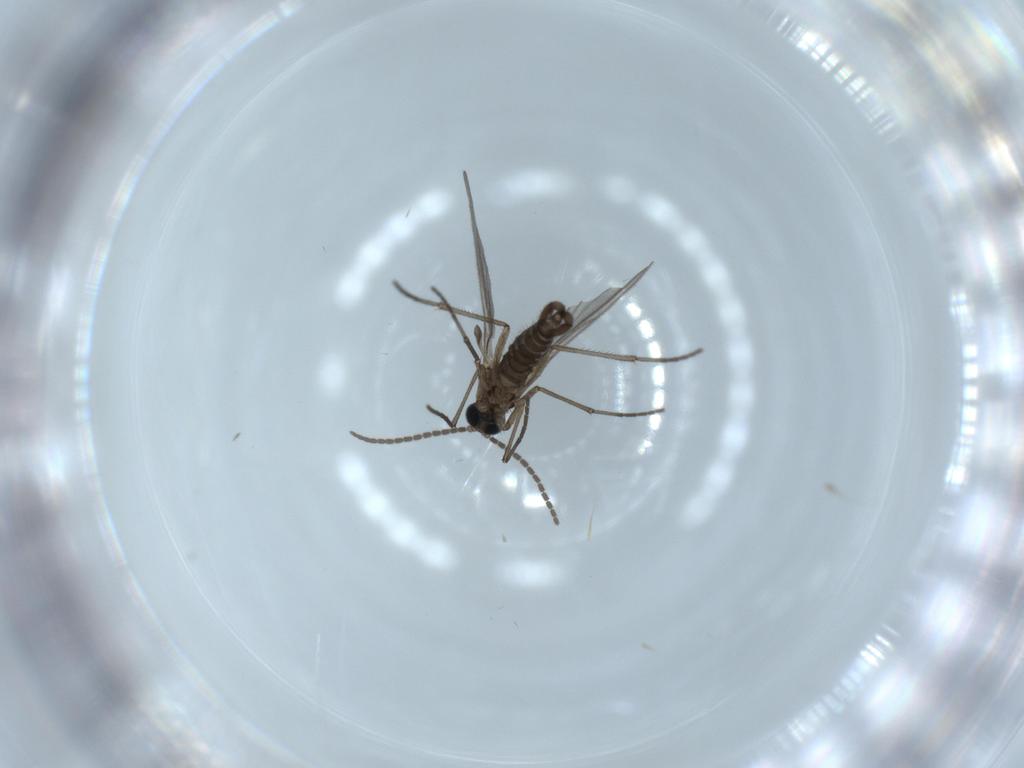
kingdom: Animalia
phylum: Arthropoda
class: Insecta
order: Diptera
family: Sciaridae
